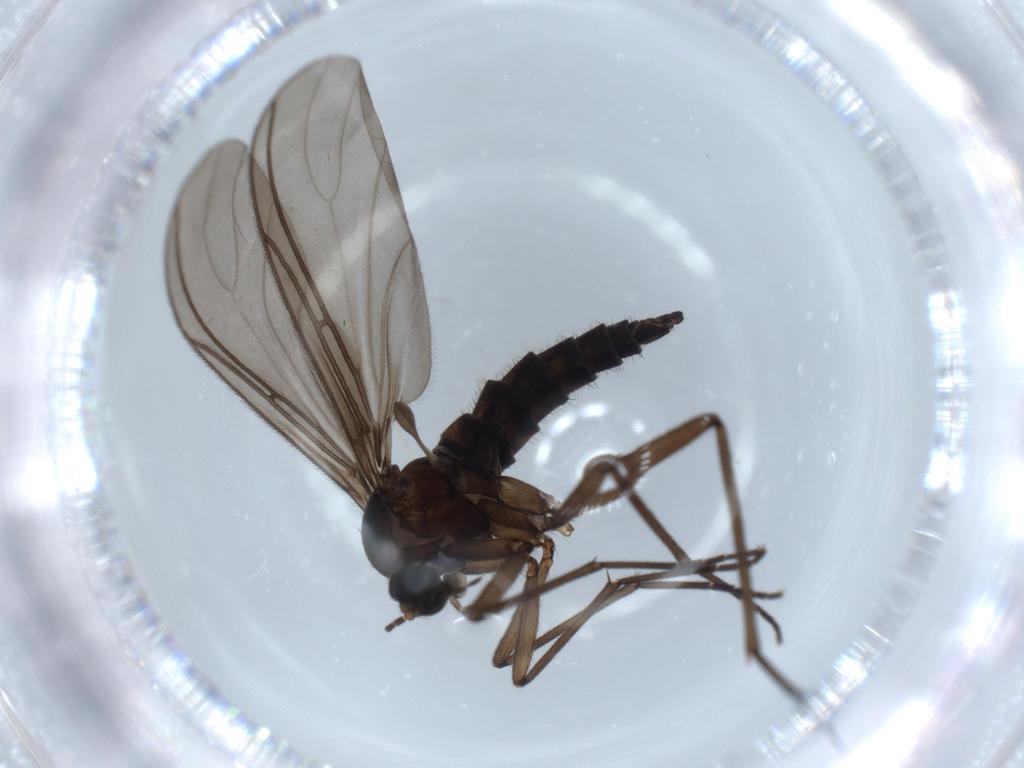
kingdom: Animalia
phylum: Arthropoda
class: Insecta
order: Diptera
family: Sciaridae
